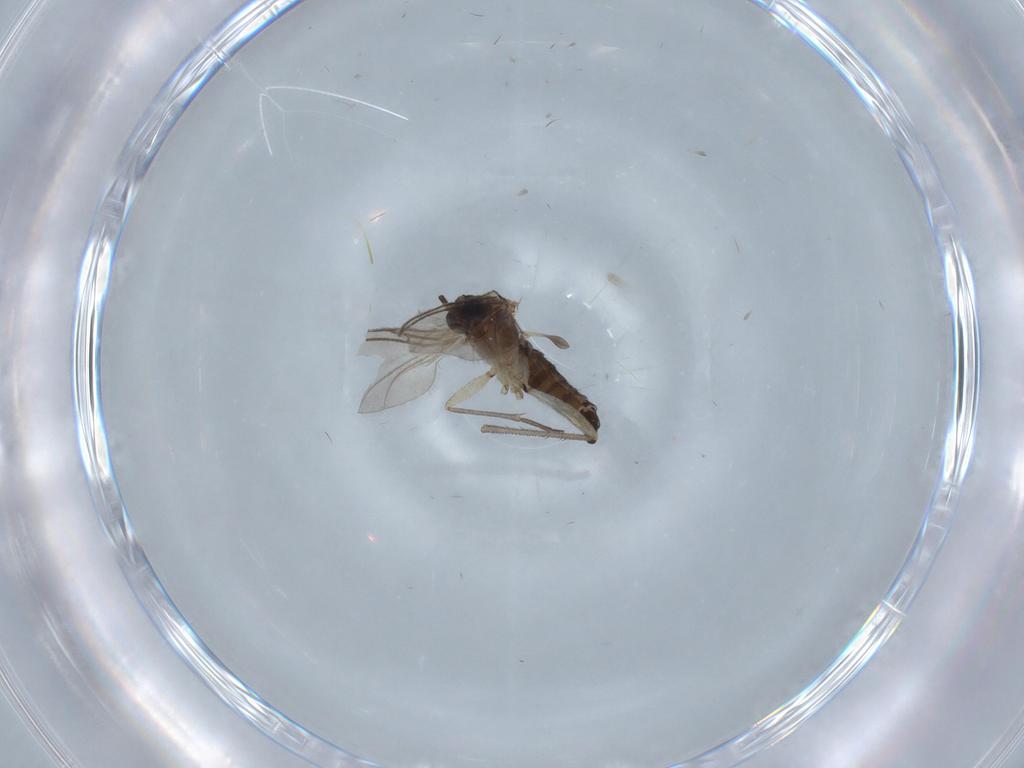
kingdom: Animalia
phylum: Arthropoda
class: Insecta
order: Diptera
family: Sciaridae
